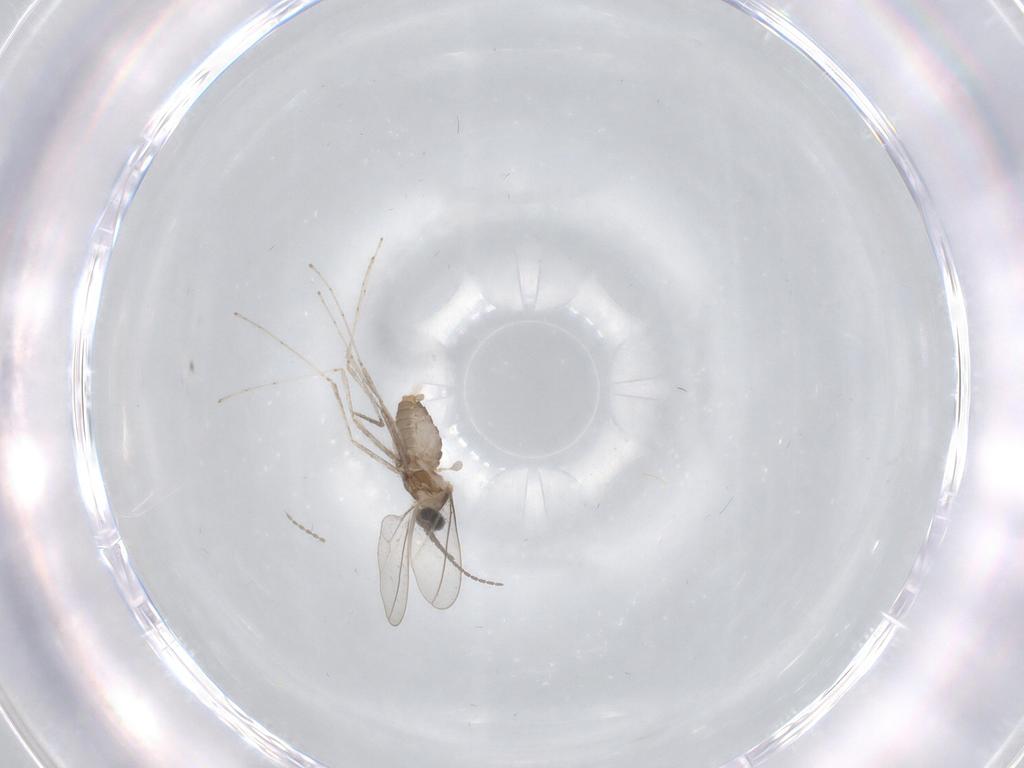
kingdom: Animalia
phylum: Arthropoda
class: Insecta
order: Diptera
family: Cecidomyiidae
